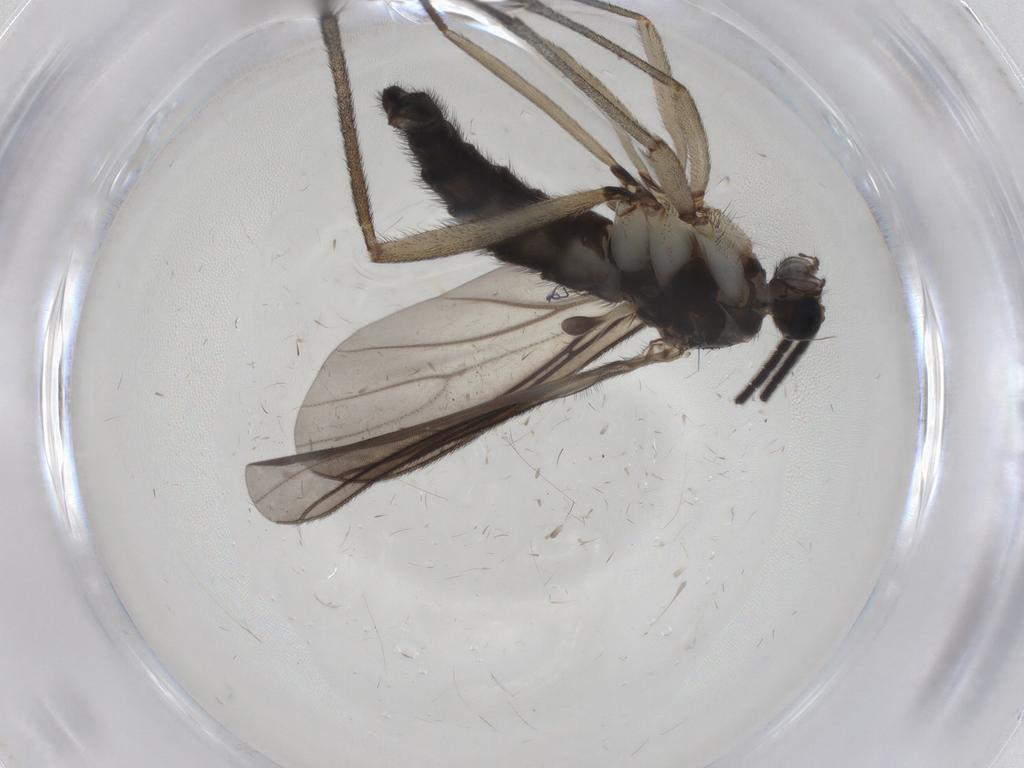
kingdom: Animalia
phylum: Arthropoda
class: Insecta
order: Diptera
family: Sciaridae
